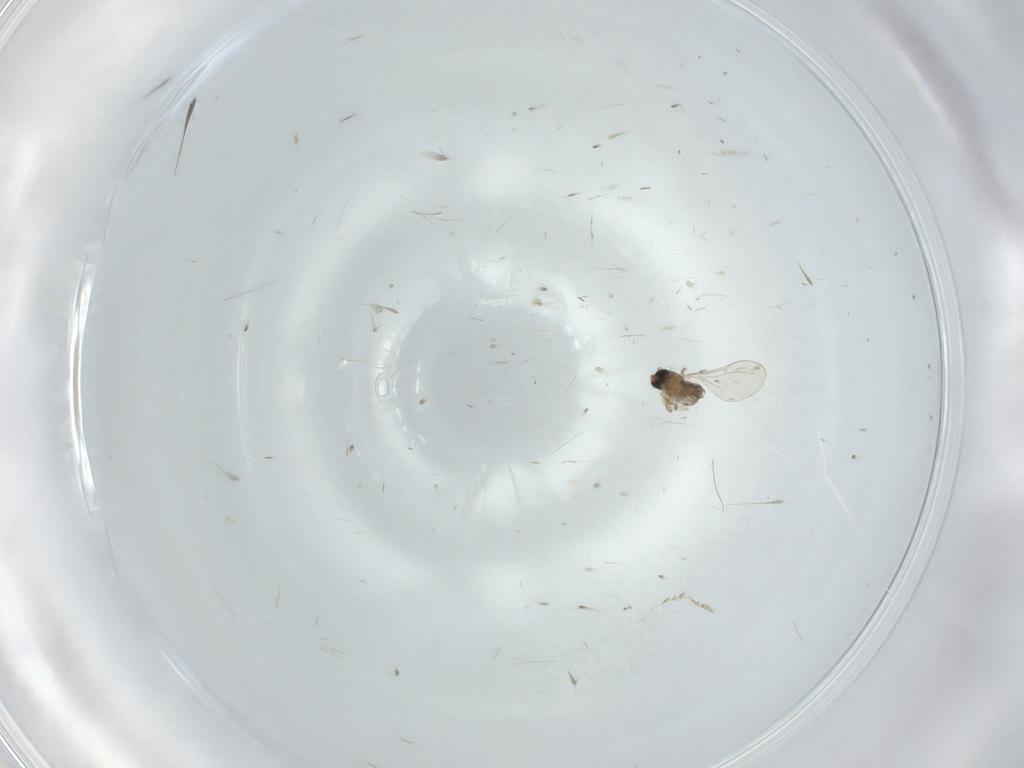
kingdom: Animalia
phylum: Arthropoda
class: Insecta
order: Diptera
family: Cecidomyiidae
